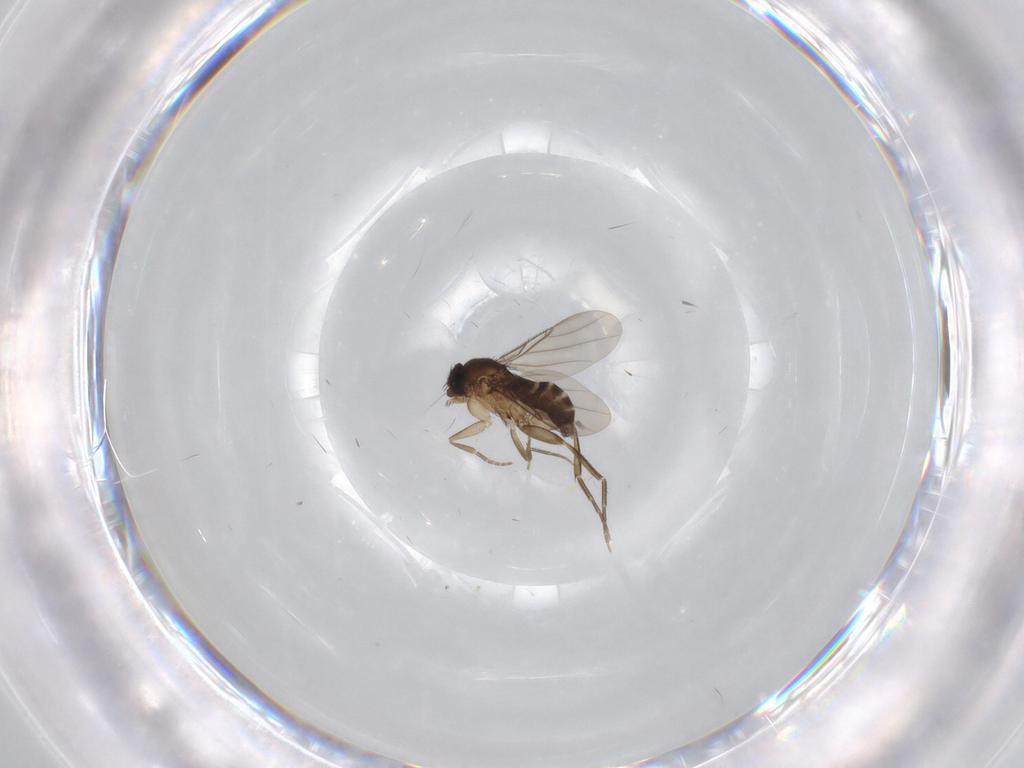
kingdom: Animalia
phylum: Arthropoda
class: Insecta
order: Diptera
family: Phoridae
